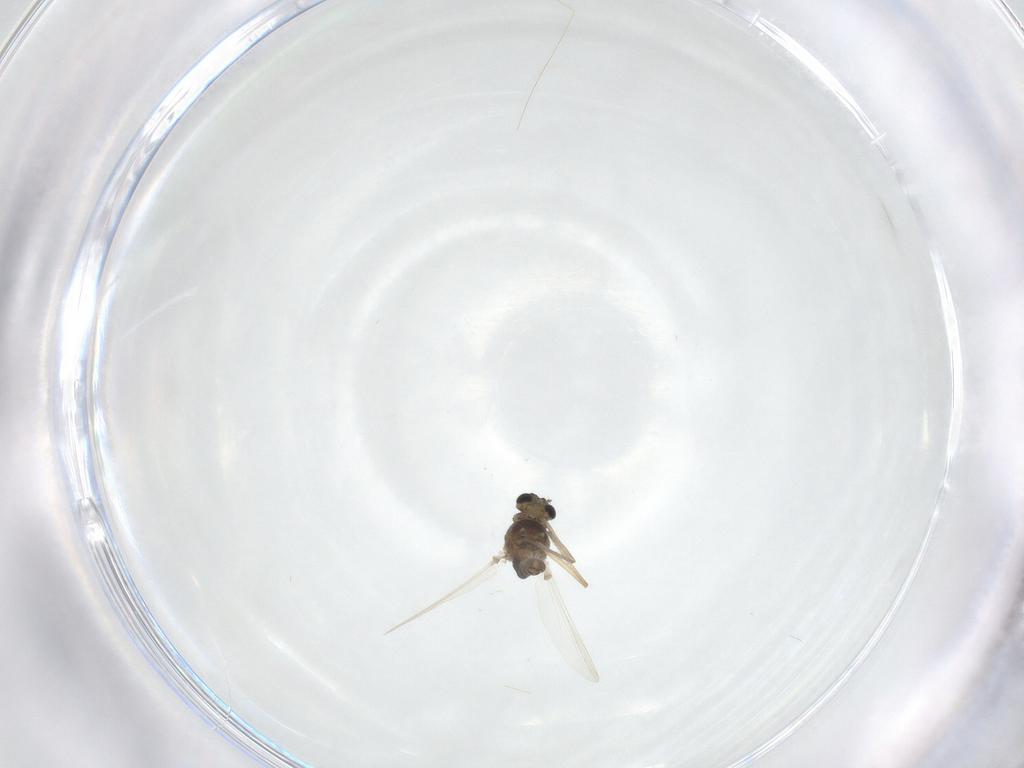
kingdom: Animalia
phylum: Arthropoda
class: Insecta
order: Diptera
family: Chironomidae
